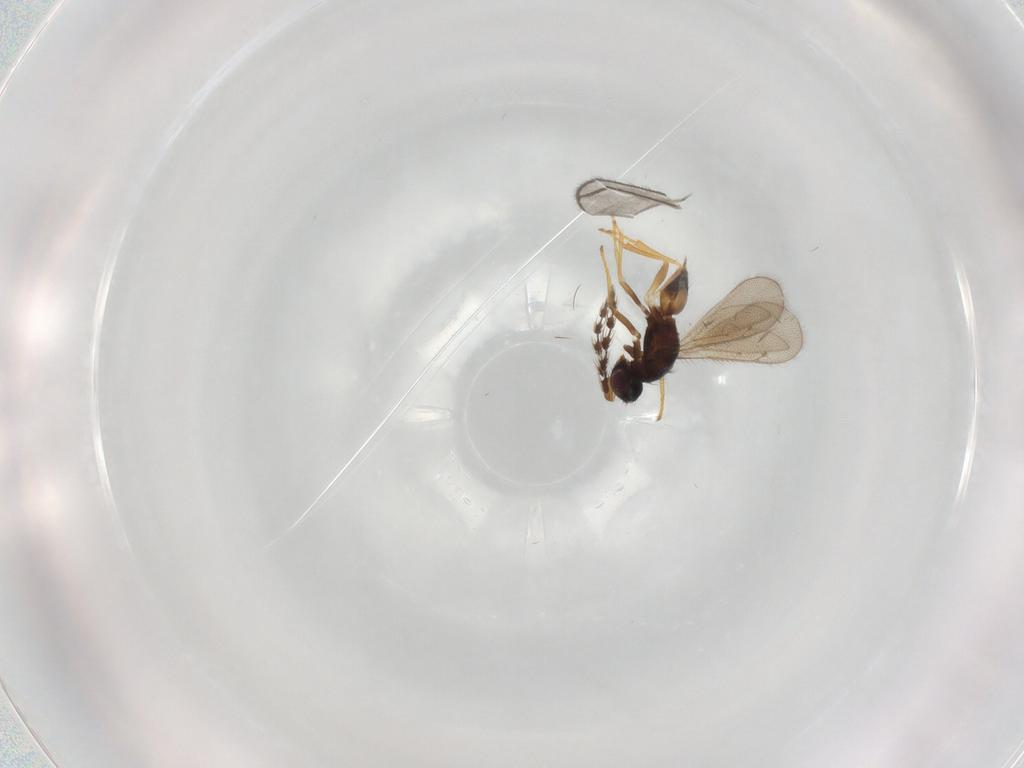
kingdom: Animalia
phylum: Arthropoda
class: Insecta
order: Hymenoptera
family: Eulophidae
